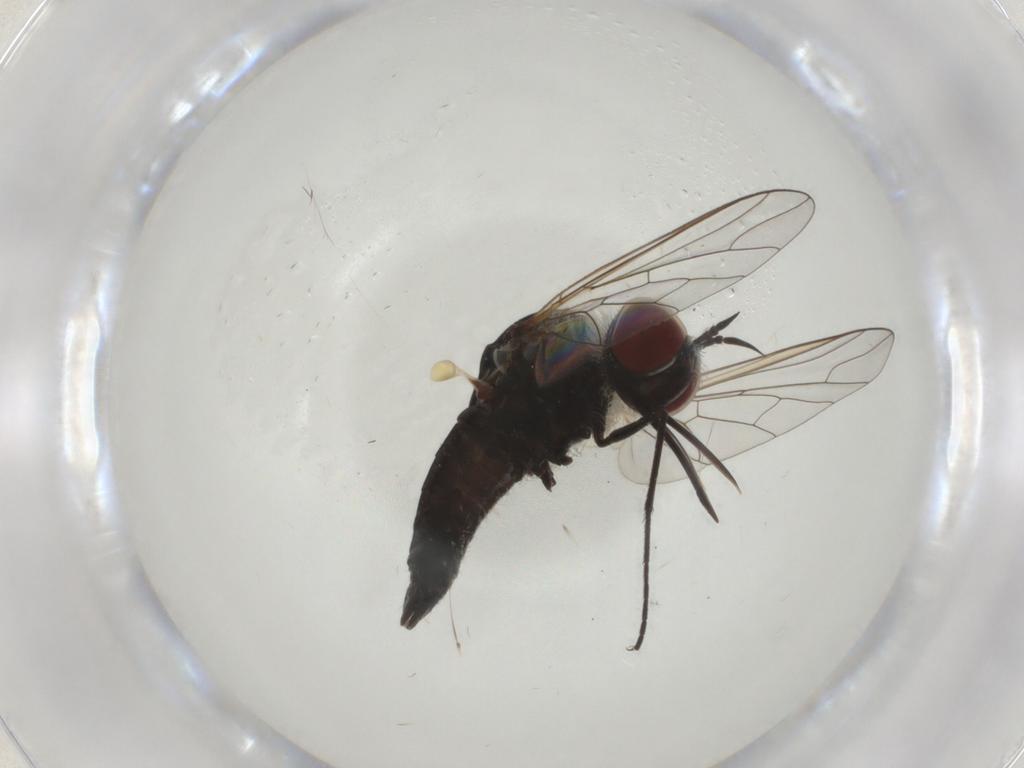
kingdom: Animalia
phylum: Arthropoda
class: Insecta
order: Diptera
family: Bombyliidae
